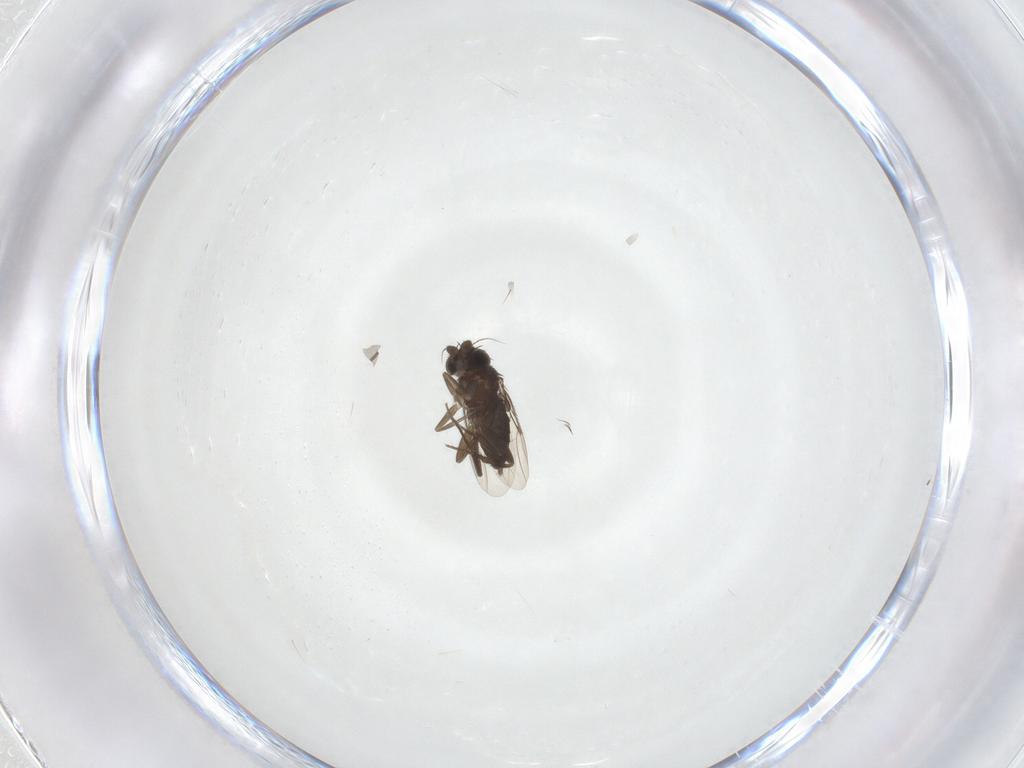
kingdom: Animalia
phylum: Arthropoda
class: Insecta
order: Diptera
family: Phoridae
